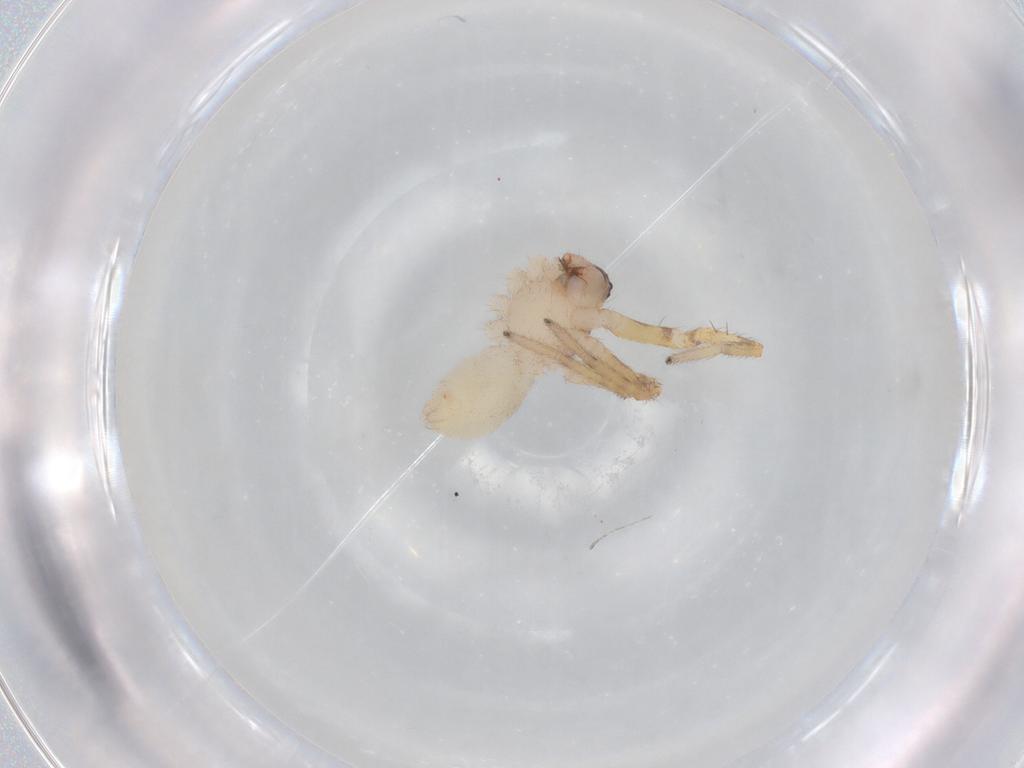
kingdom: Animalia
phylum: Arthropoda
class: Arachnida
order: Araneae
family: Corinnidae
